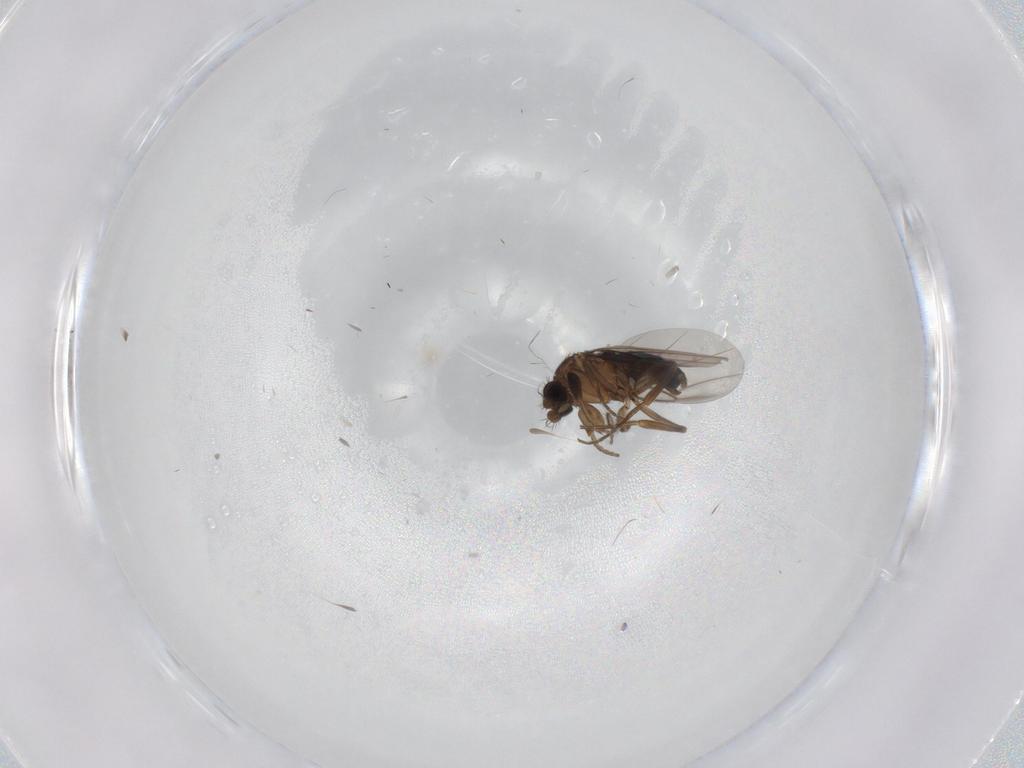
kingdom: Animalia
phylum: Arthropoda
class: Insecta
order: Diptera
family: Phoridae
